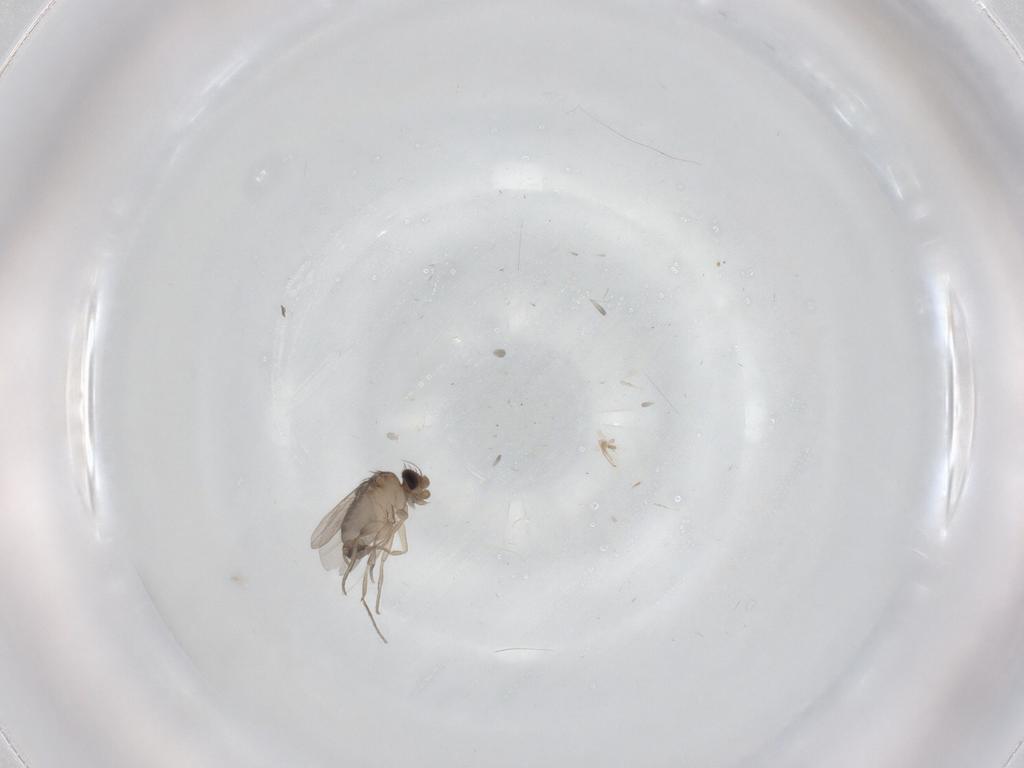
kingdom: Animalia
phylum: Arthropoda
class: Insecta
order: Diptera
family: Phoridae
